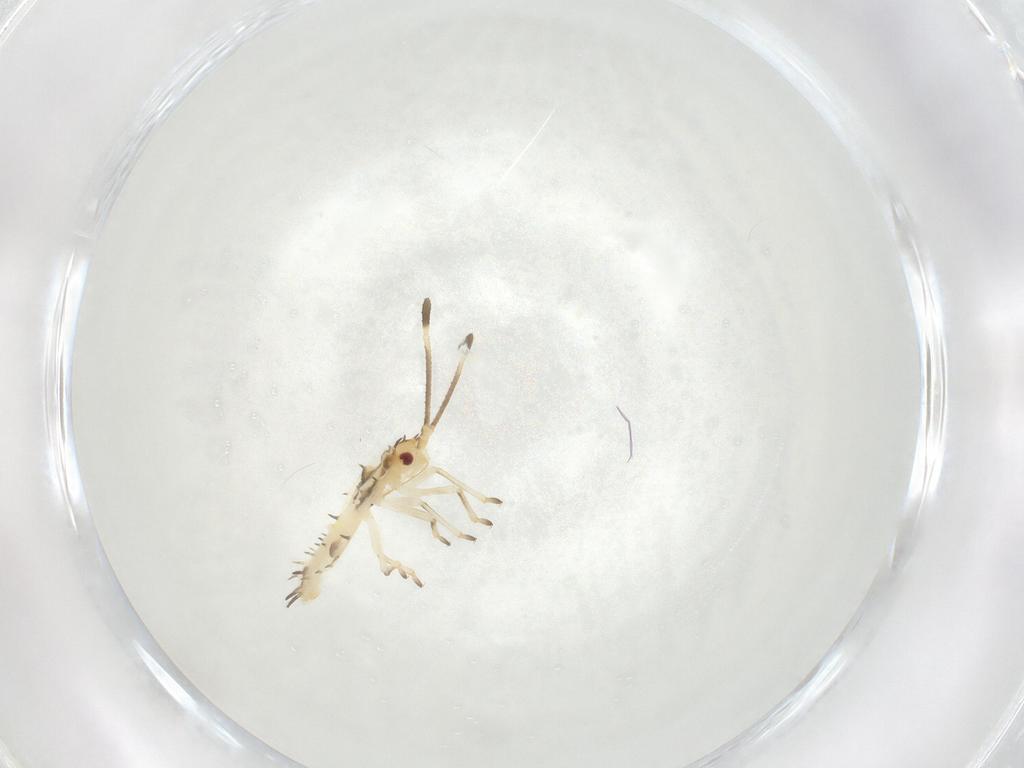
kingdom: Animalia
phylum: Arthropoda
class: Insecta
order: Hemiptera
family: Tingidae
